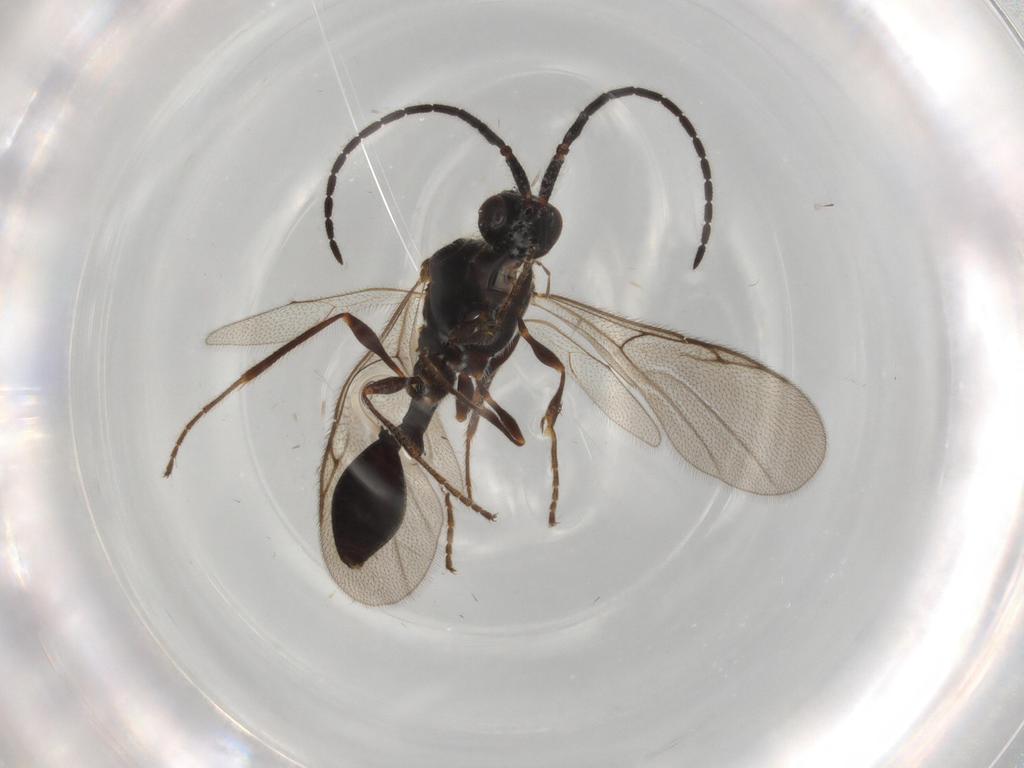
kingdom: Animalia
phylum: Arthropoda
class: Insecta
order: Hymenoptera
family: Diapriidae
